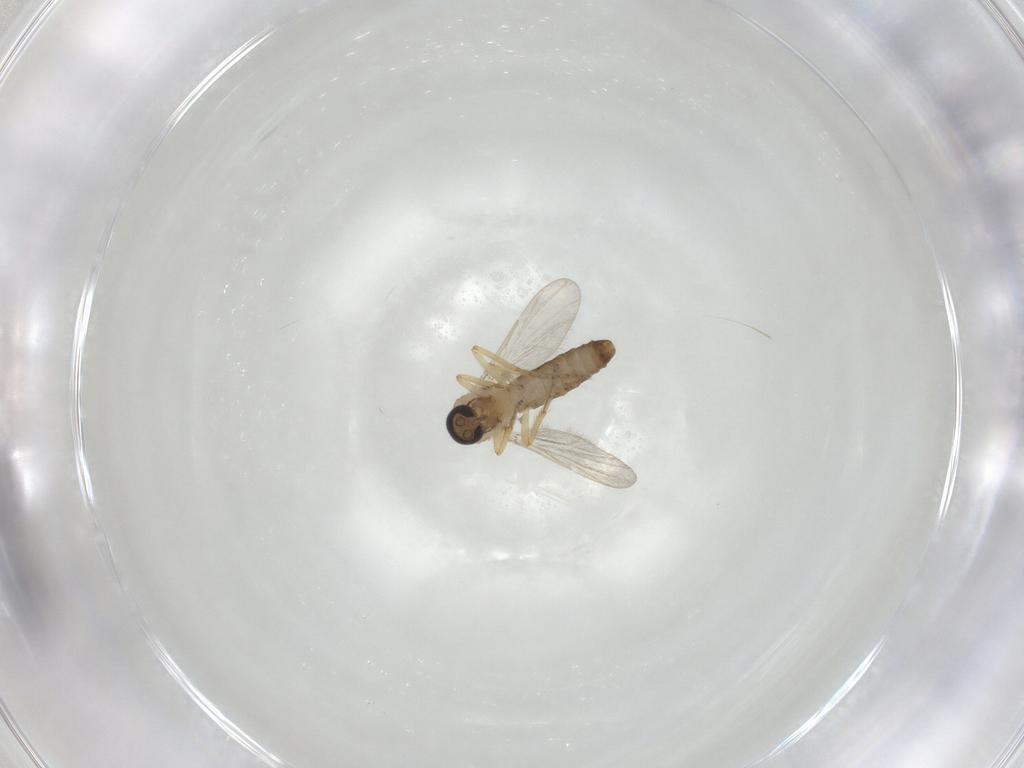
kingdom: Animalia
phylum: Arthropoda
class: Insecta
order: Diptera
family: Ceratopogonidae
